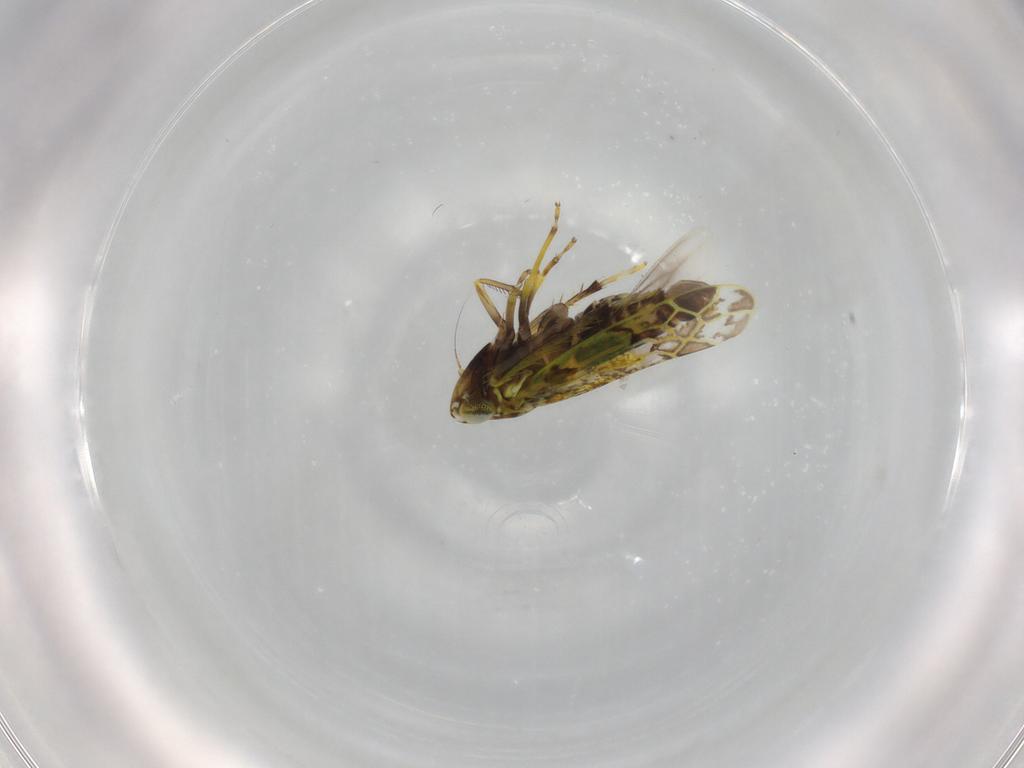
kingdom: Animalia
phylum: Arthropoda
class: Insecta
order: Hemiptera
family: Cicadellidae
